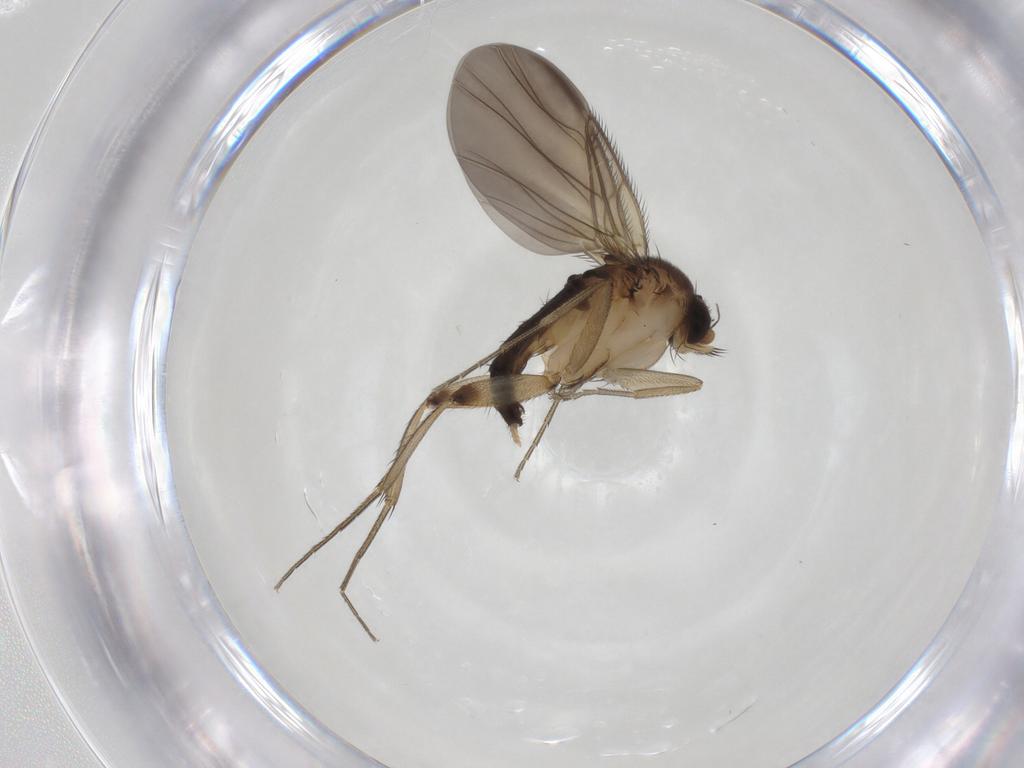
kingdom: Animalia
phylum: Arthropoda
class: Insecta
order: Diptera
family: Phoridae
